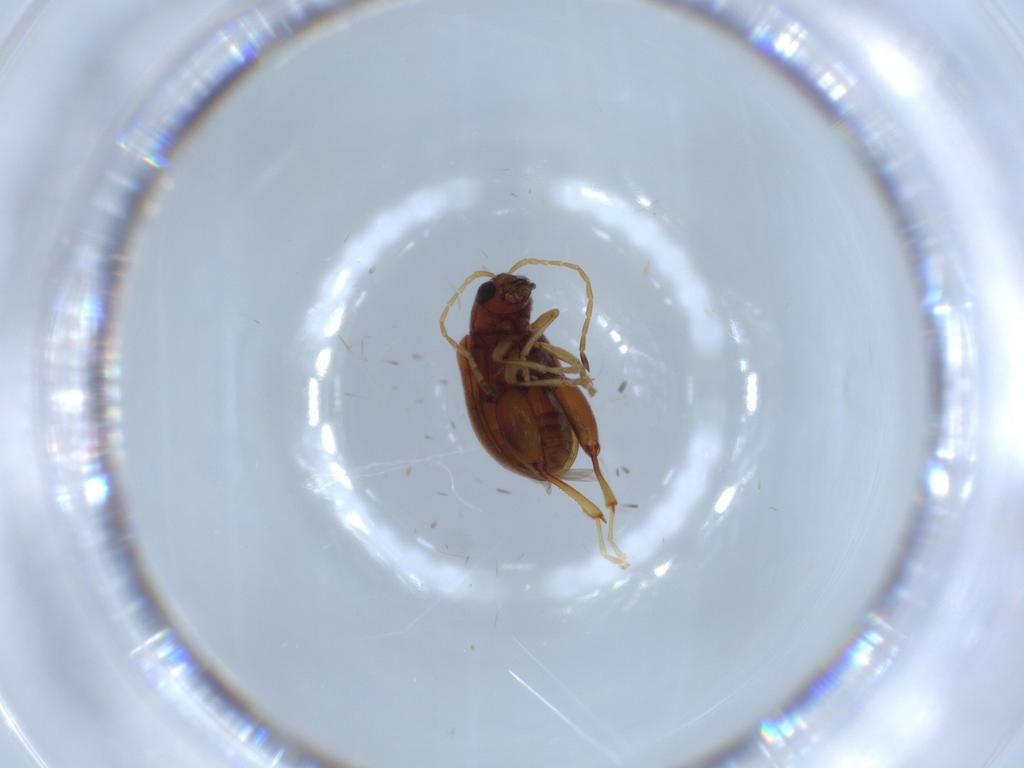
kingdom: Animalia
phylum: Arthropoda
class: Insecta
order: Coleoptera
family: Chrysomelidae
